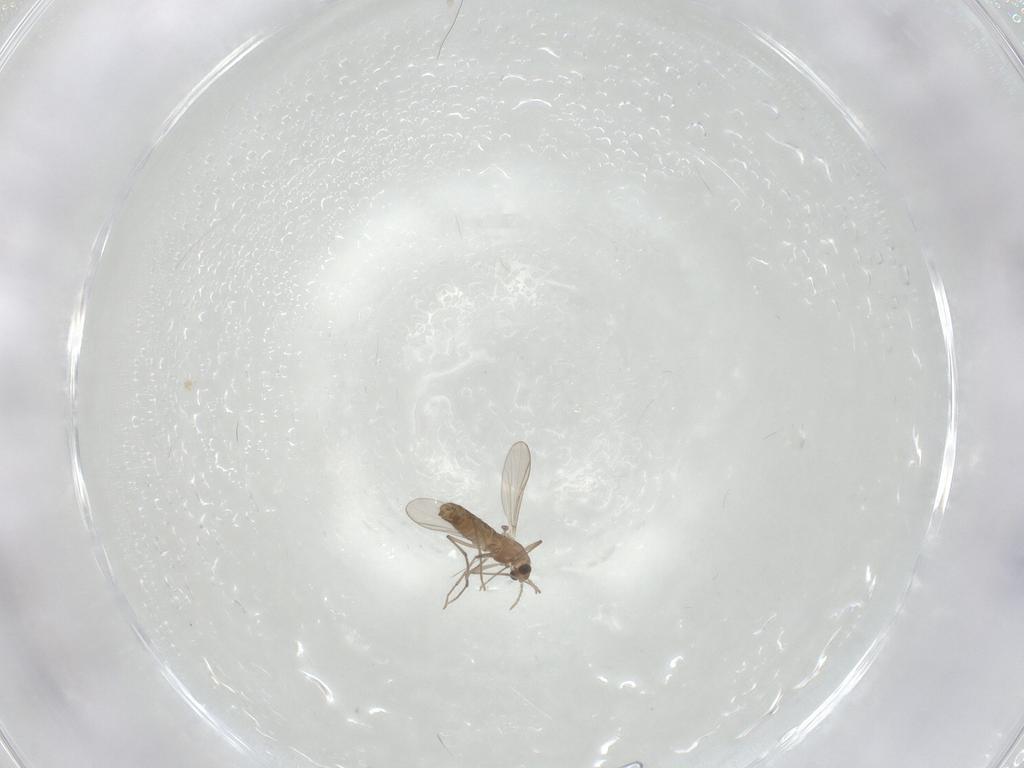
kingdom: Animalia
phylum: Arthropoda
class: Insecta
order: Diptera
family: Chironomidae
